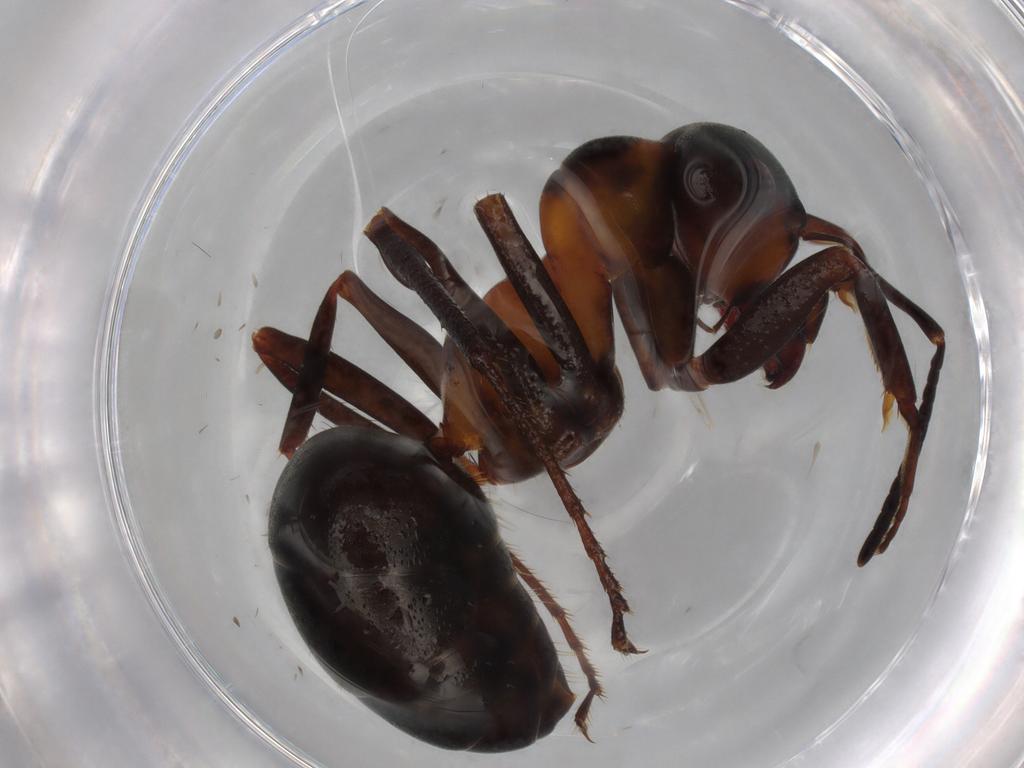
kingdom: Animalia
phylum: Arthropoda
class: Insecta
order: Hymenoptera
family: Formicidae
